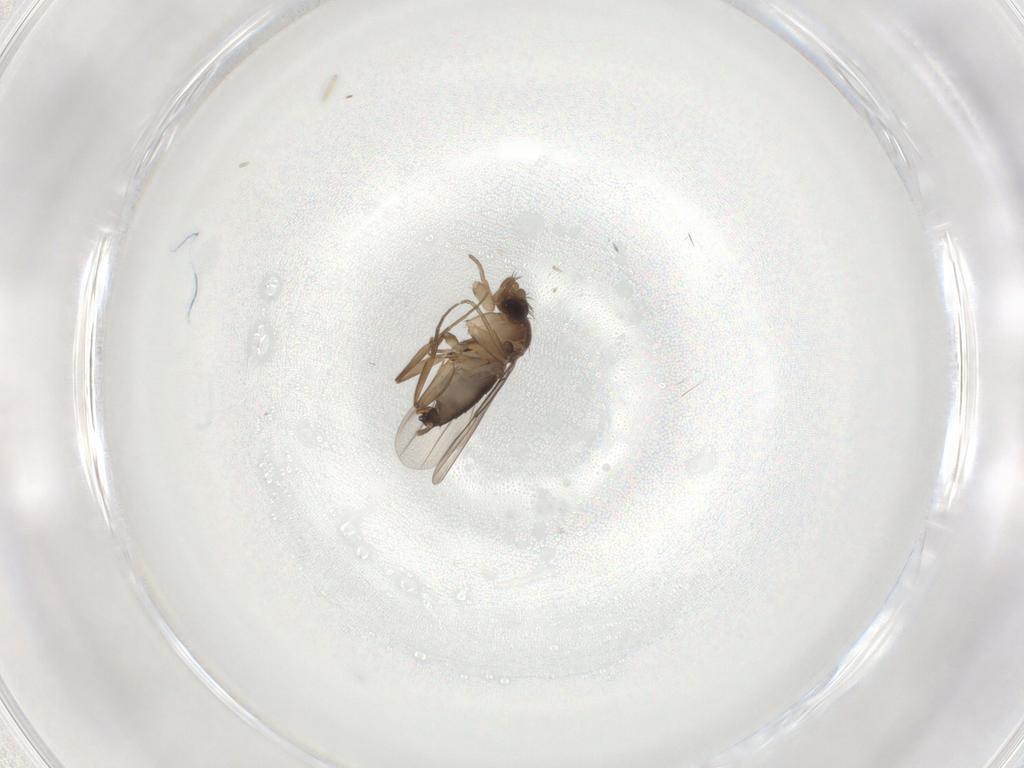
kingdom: Animalia
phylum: Arthropoda
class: Insecta
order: Diptera
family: Phoridae
